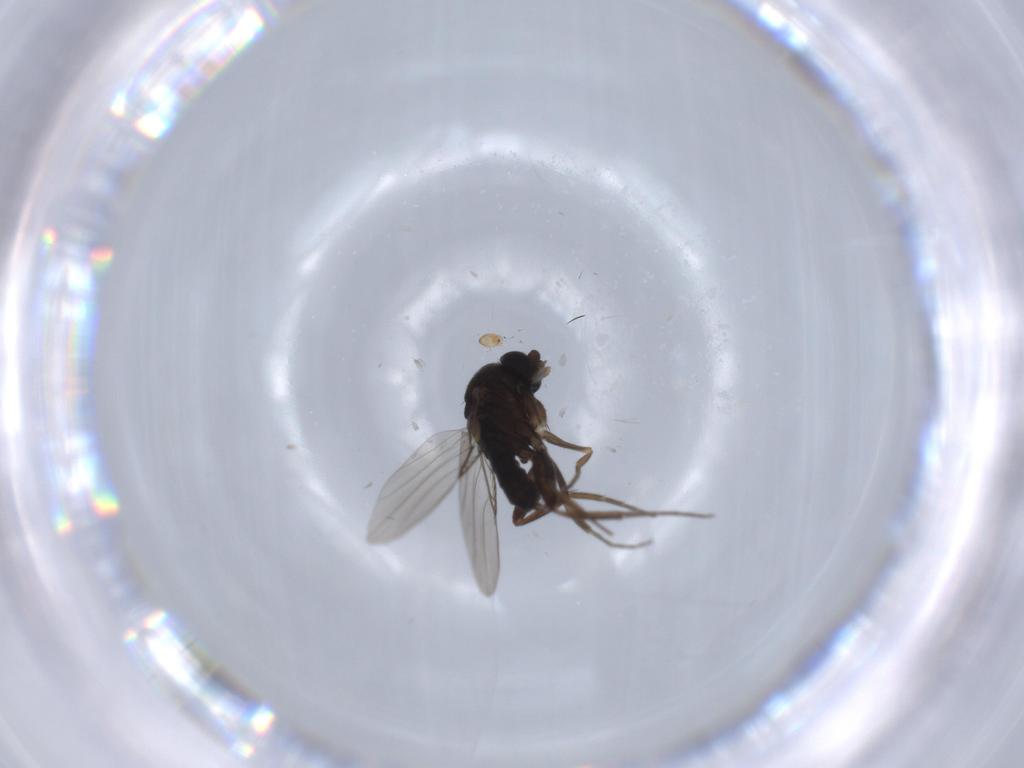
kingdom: Animalia
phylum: Arthropoda
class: Insecta
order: Diptera
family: Phoridae
